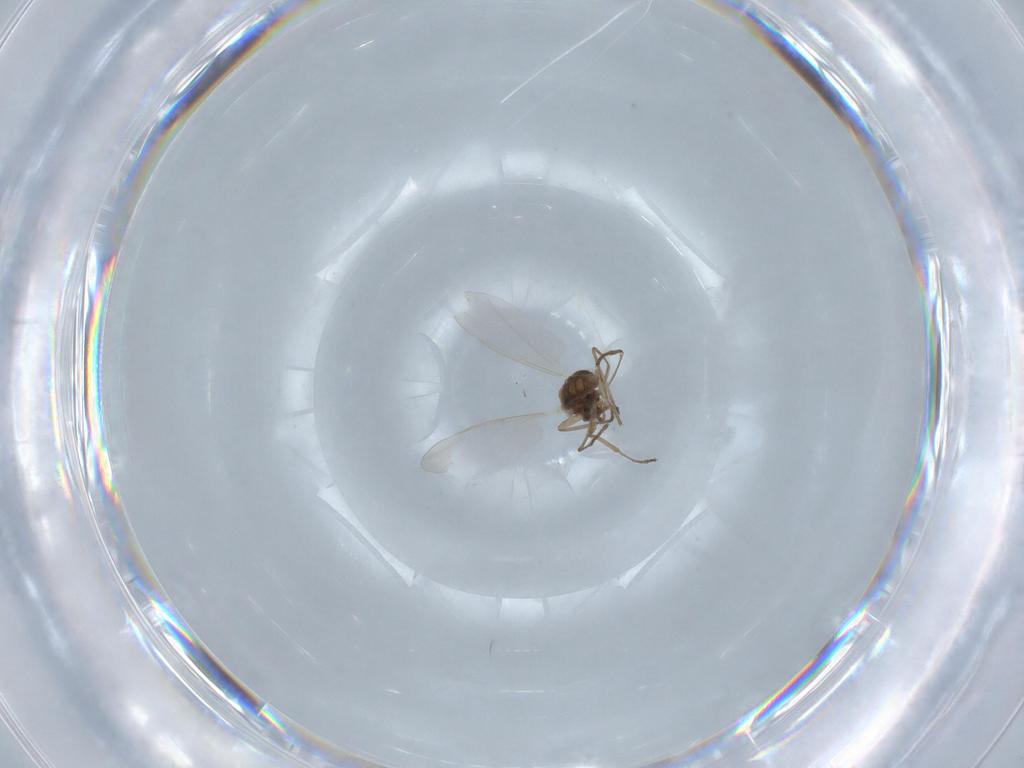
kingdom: Animalia
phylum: Arthropoda
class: Insecta
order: Diptera
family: Cecidomyiidae
